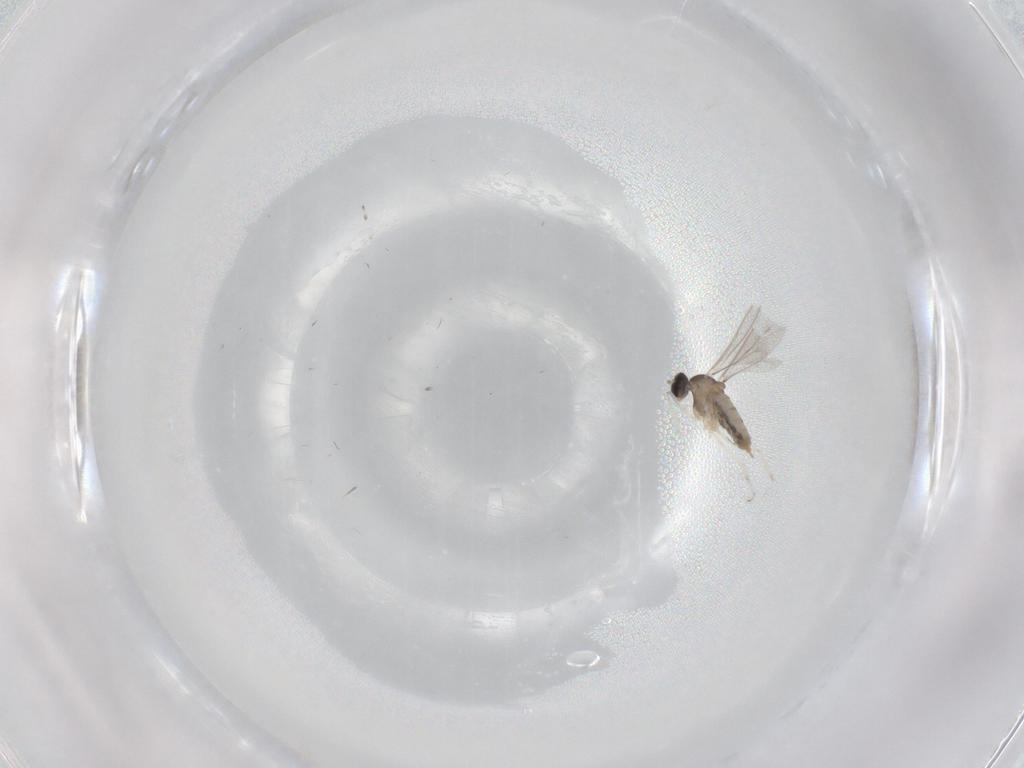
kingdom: Animalia
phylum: Arthropoda
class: Insecta
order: Diptera
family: Cecidomyiidae
